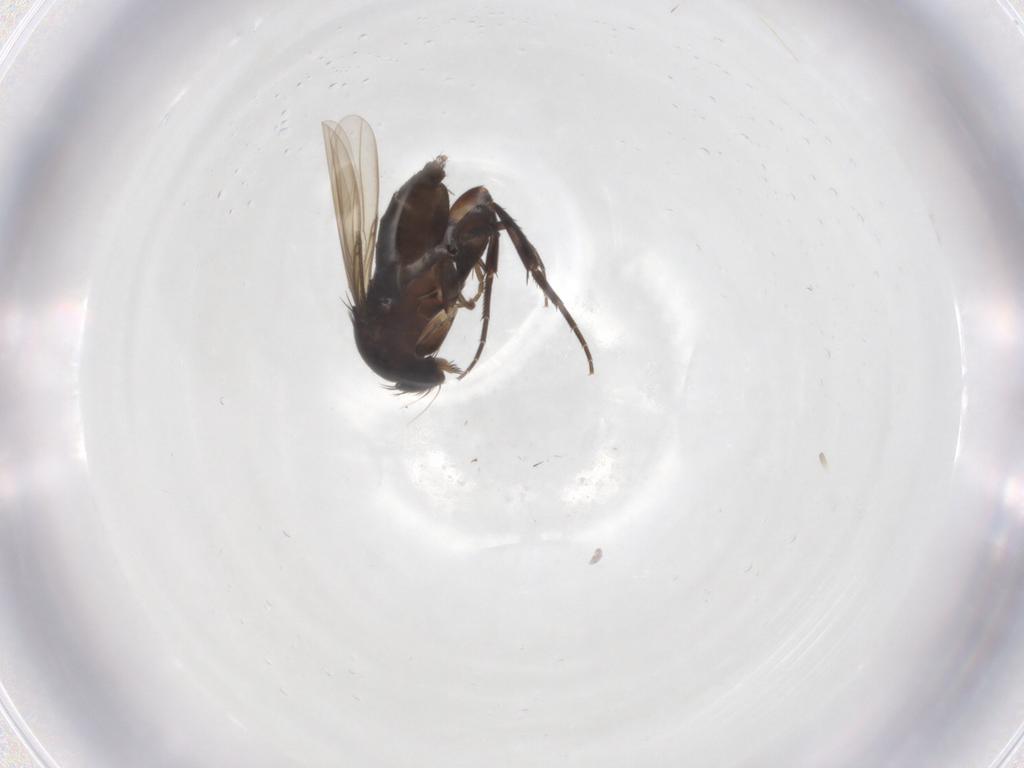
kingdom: Animalia
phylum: Arthropoda
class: Insecta
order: Diptera
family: Phoridae
